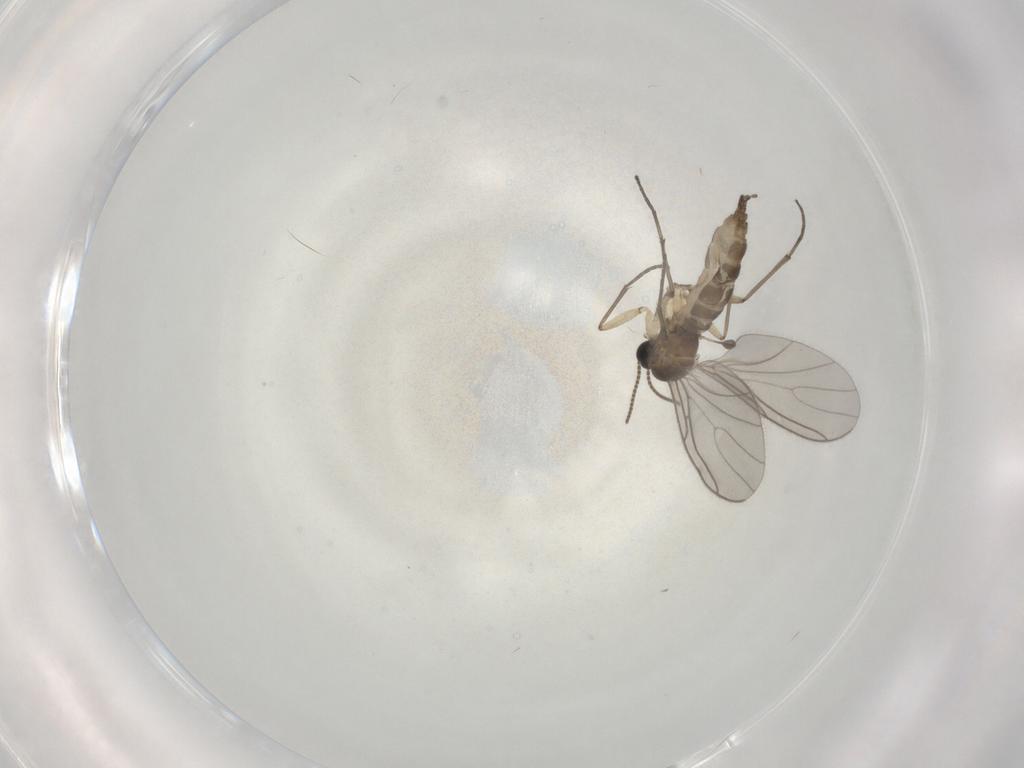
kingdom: Animalia
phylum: Arthropoda
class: Insecta
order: Diptera
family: Sciaridae
